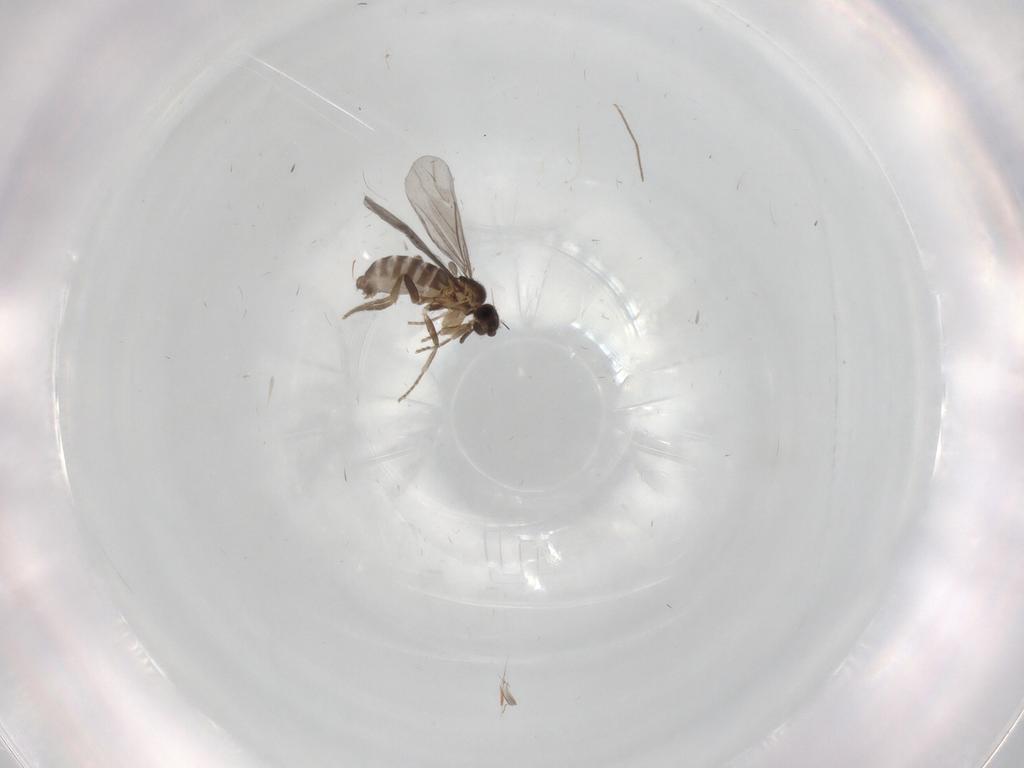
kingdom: Animalia
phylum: Arthropoda
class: Insecta
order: Diptera
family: Chironomidae
